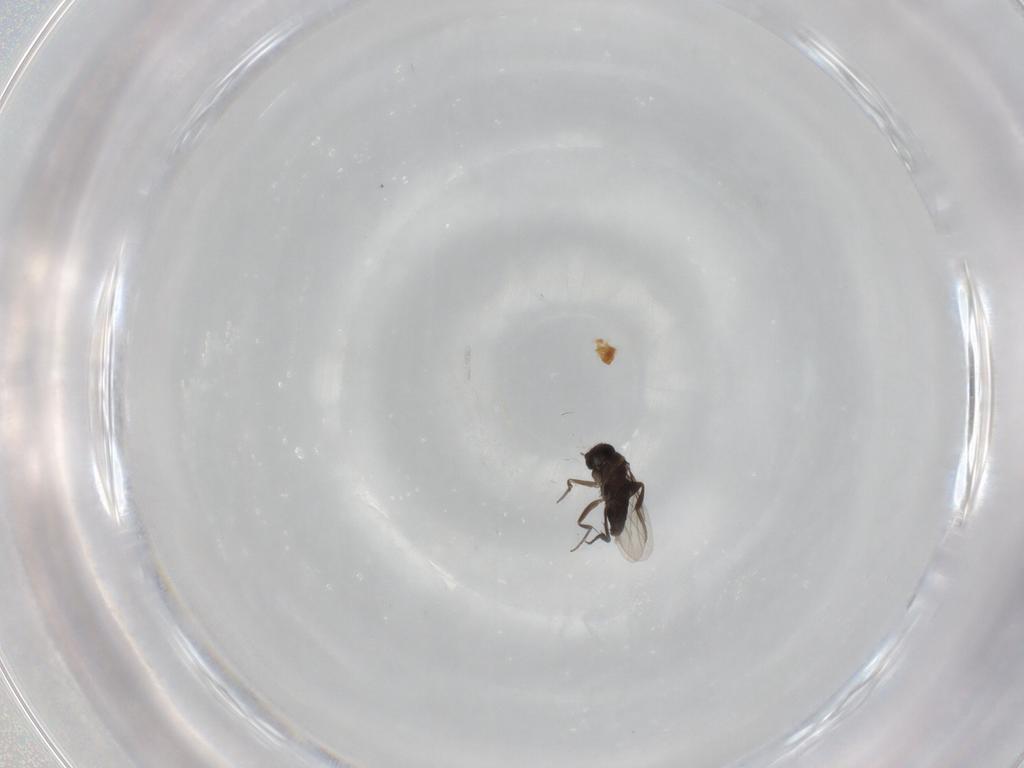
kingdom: Animalia
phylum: Arthropoda
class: Insecta
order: Diptera
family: Phoridae
